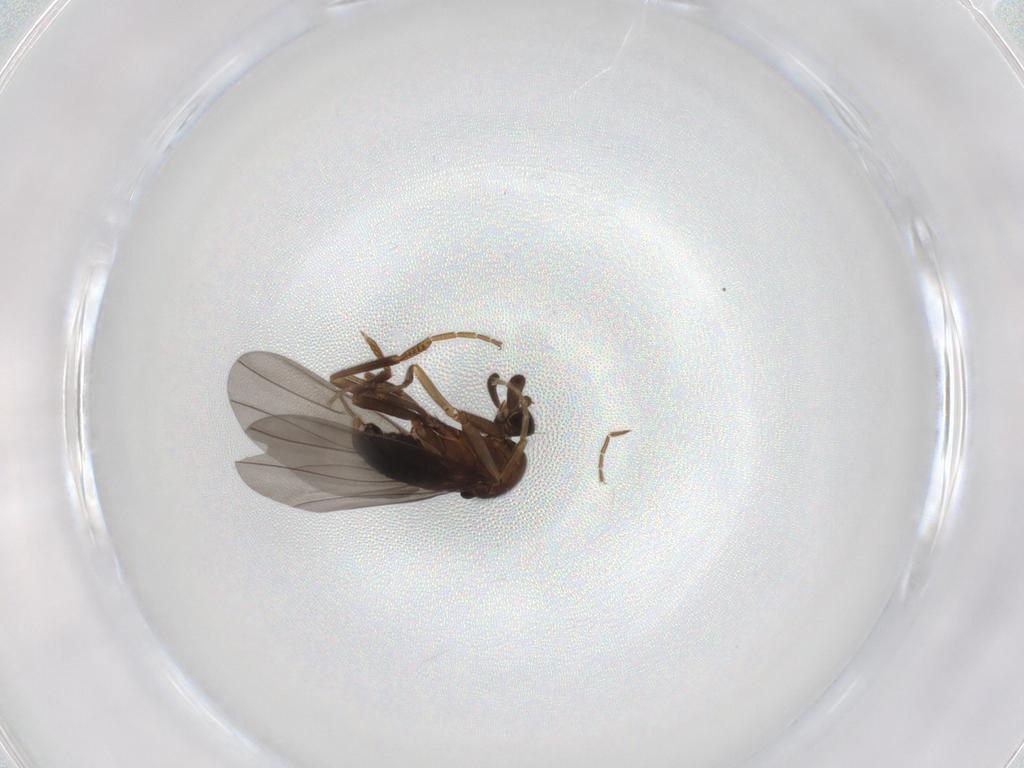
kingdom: Animalia
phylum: Arthropoda
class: Insecta
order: Diptera
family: Phoridae
